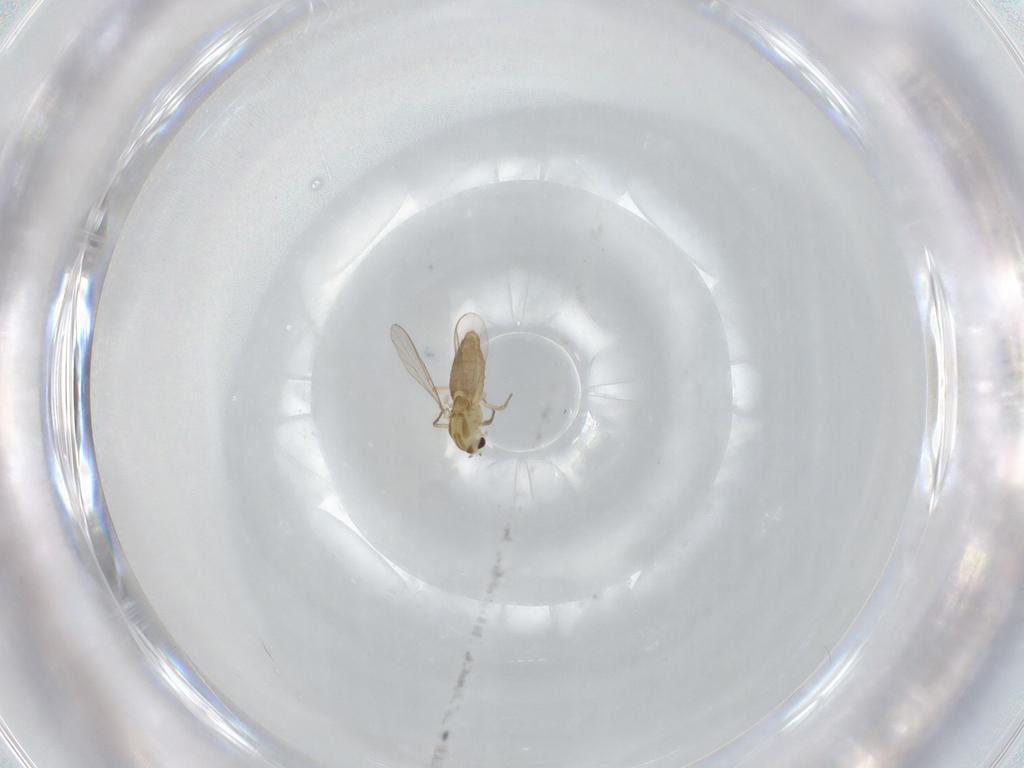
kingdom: Animalia
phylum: Arthropoda
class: Insecta
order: Diptera
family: Chironomidae
